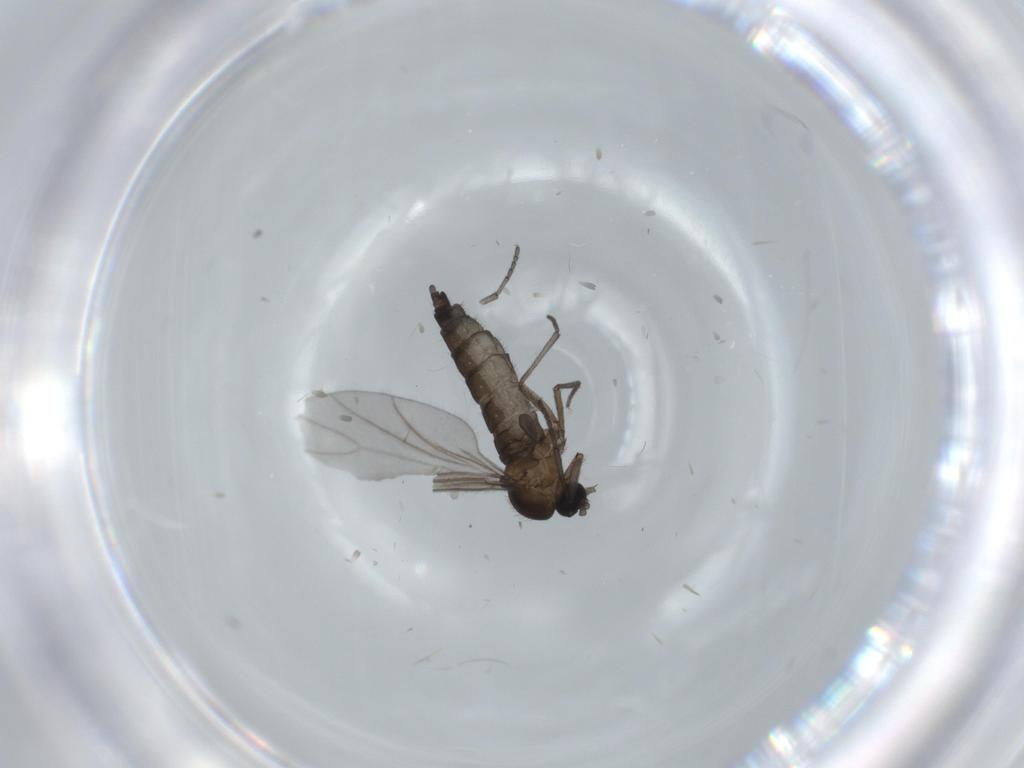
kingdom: Animalia
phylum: Arthropoda
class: Insecta
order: Diptera
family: Sciaridae
